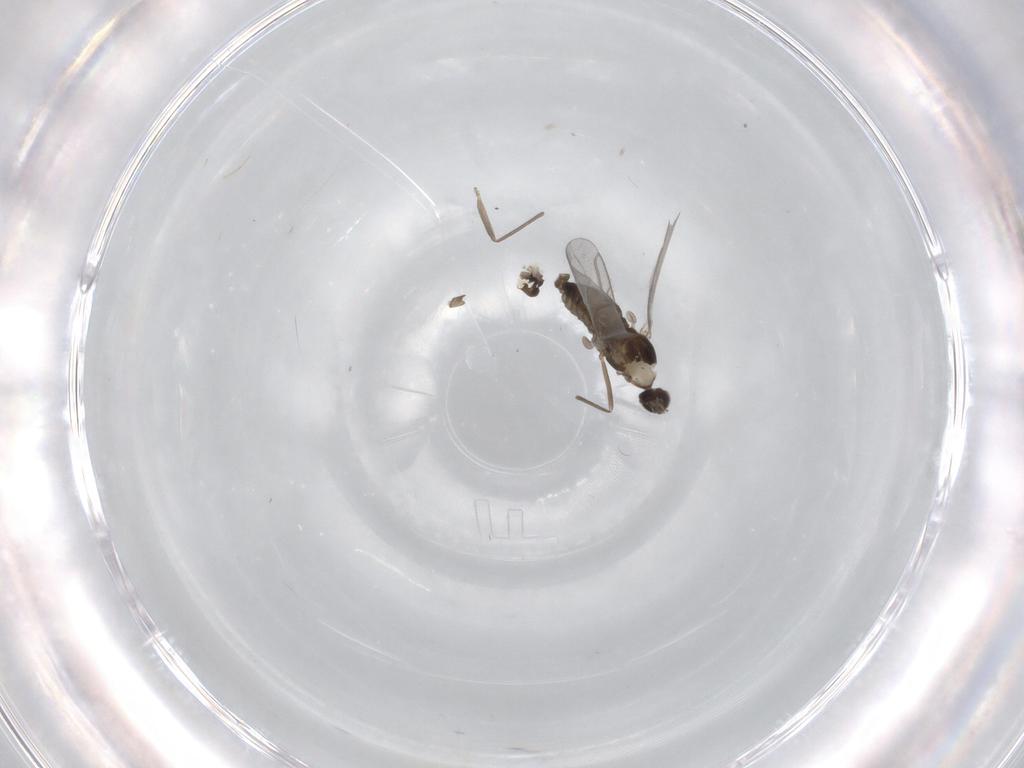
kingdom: Animalia
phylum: Arthropoda
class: Insecta
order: Diptera
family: Cecidomyiidae
